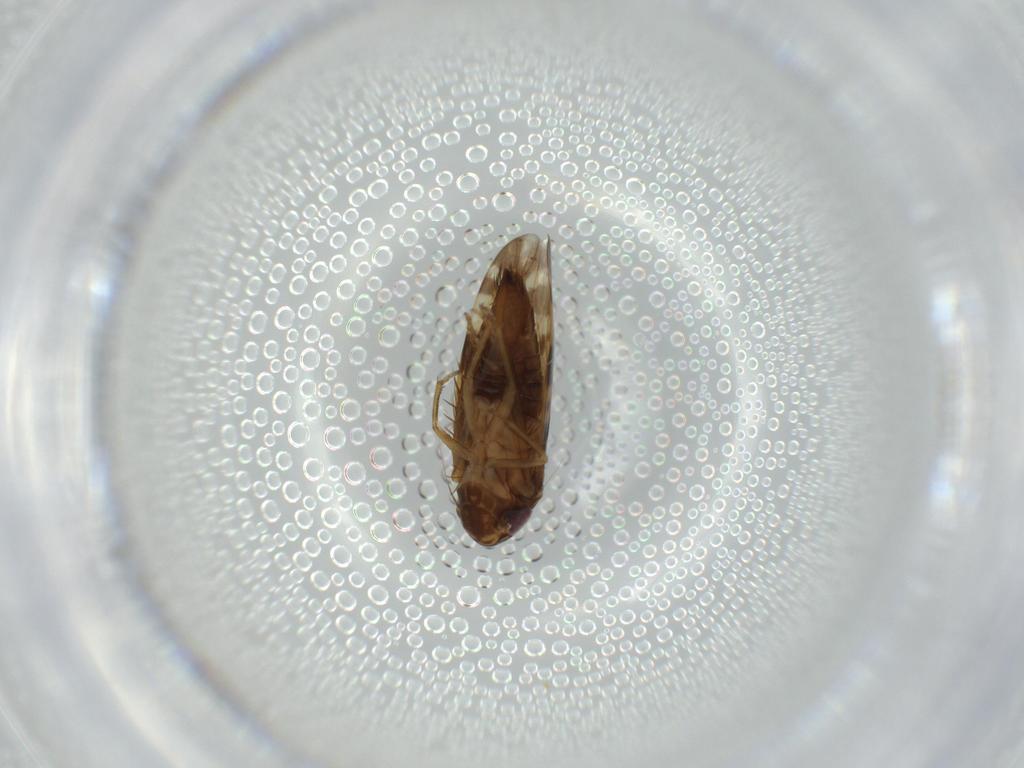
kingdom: Animalia
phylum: Arthropoda
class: Insecta
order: Hemiptera
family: Cicadellidae
